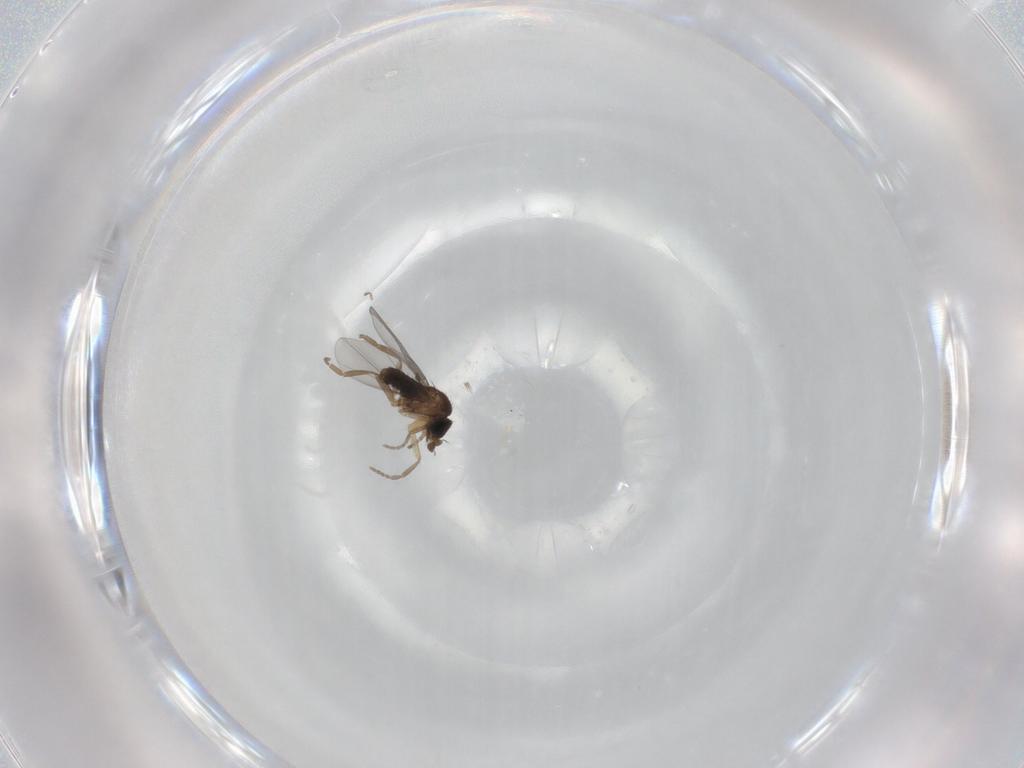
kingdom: Animalia
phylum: Arthropoda
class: Insecta
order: Diptera
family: Phoridae
